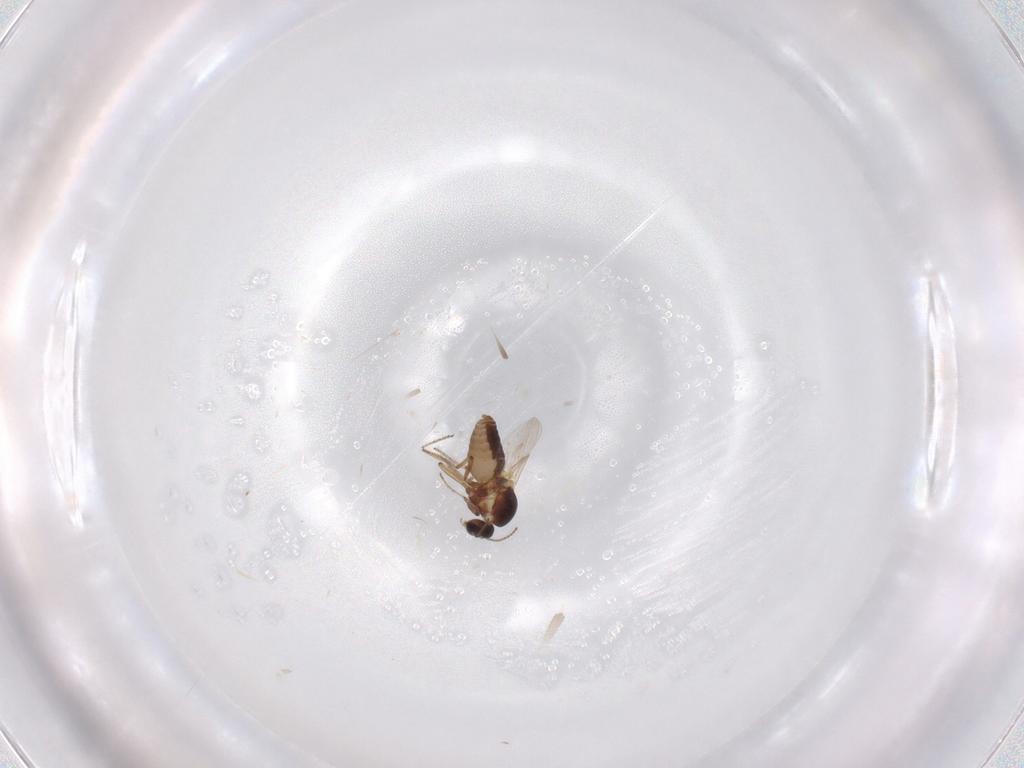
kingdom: Animalia
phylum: Arthropoda
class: Insecta
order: Diptera
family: Ceratopogonidae
